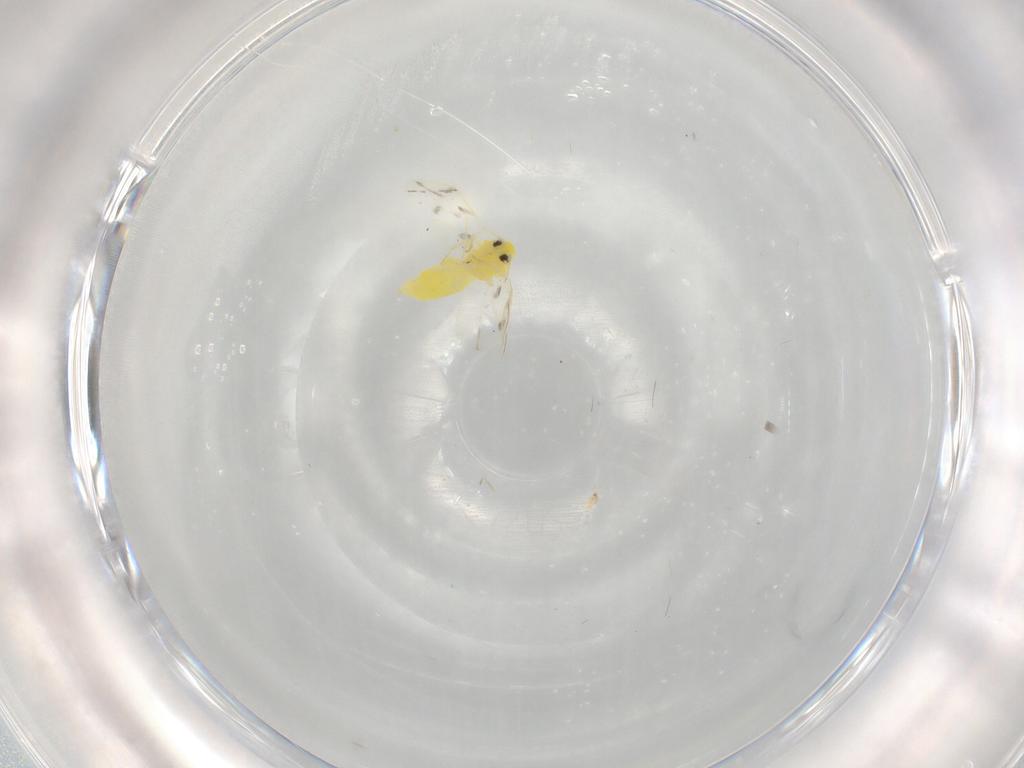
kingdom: Animalia
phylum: Arthropoda
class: Insecta
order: Hemiptera
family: Aleyrodidae
